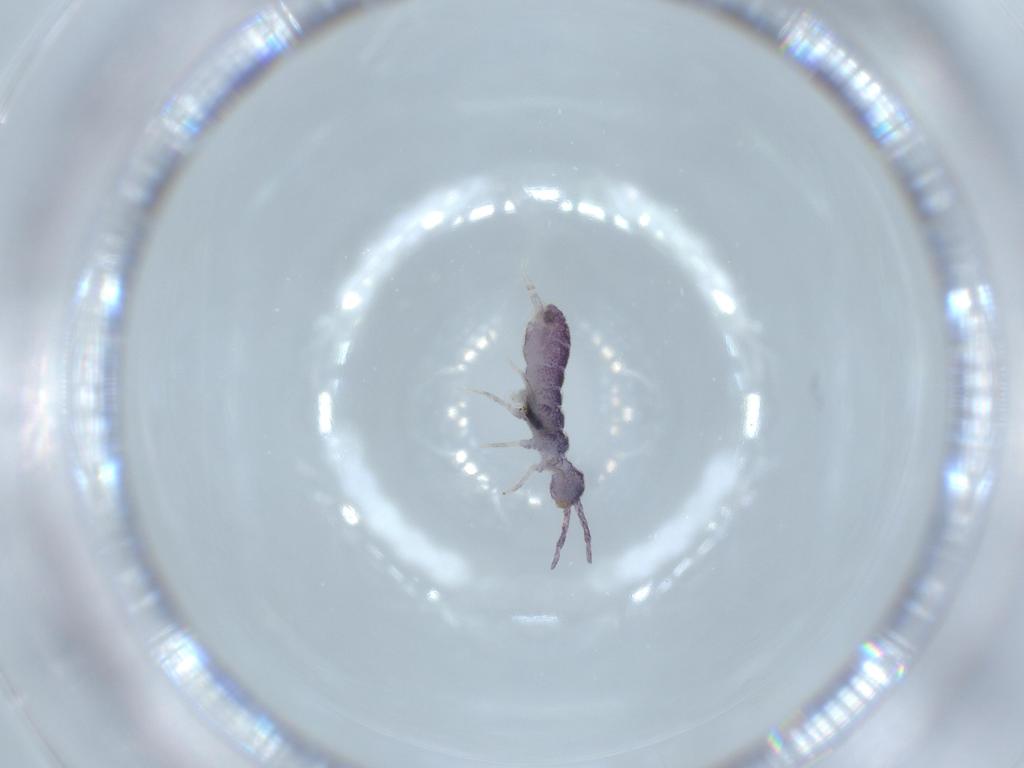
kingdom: Animalia
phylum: Arthropoda
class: Collembola
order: Entomobryomorpha
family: Isotomidae
